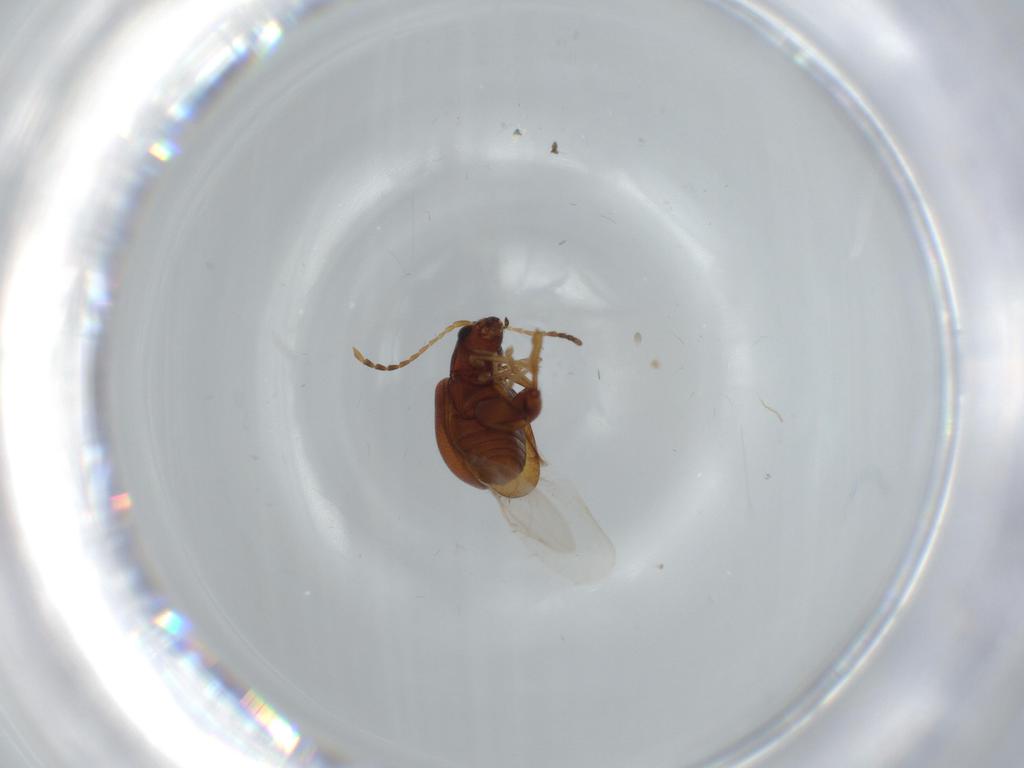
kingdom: Animalia
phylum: Arthropoda
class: Insecta
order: Coleoptera
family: Chrysomelidae
